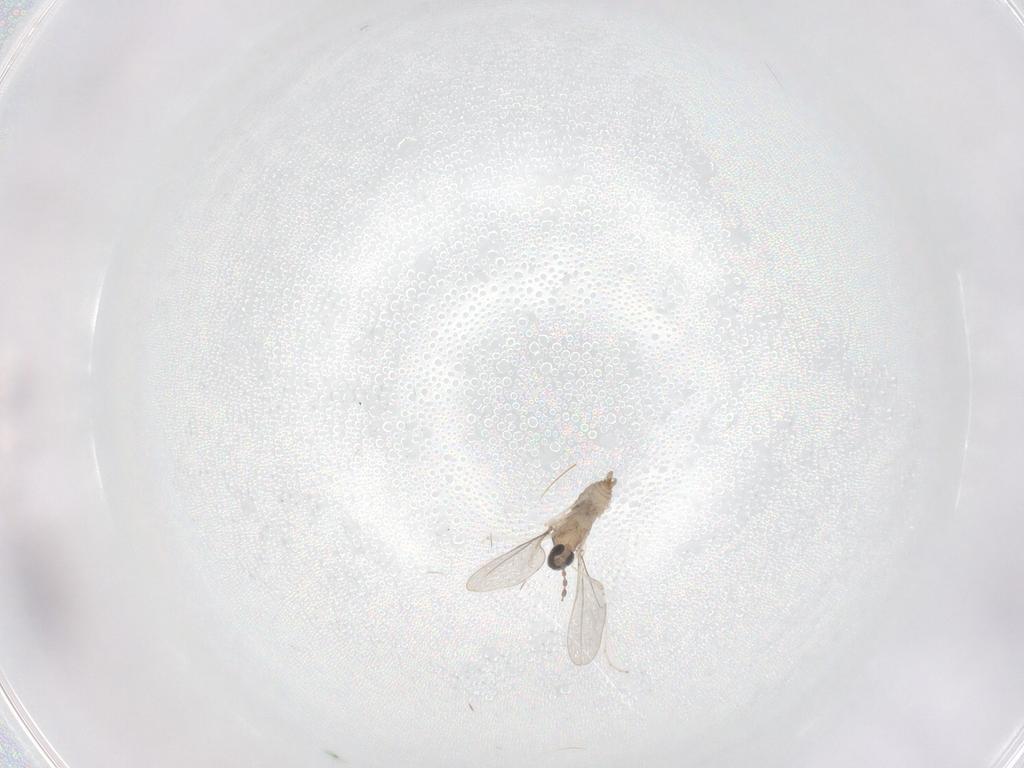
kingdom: Animalia
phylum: Arthropoda
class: Insecta
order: Diptera
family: Cecidomyiidae
